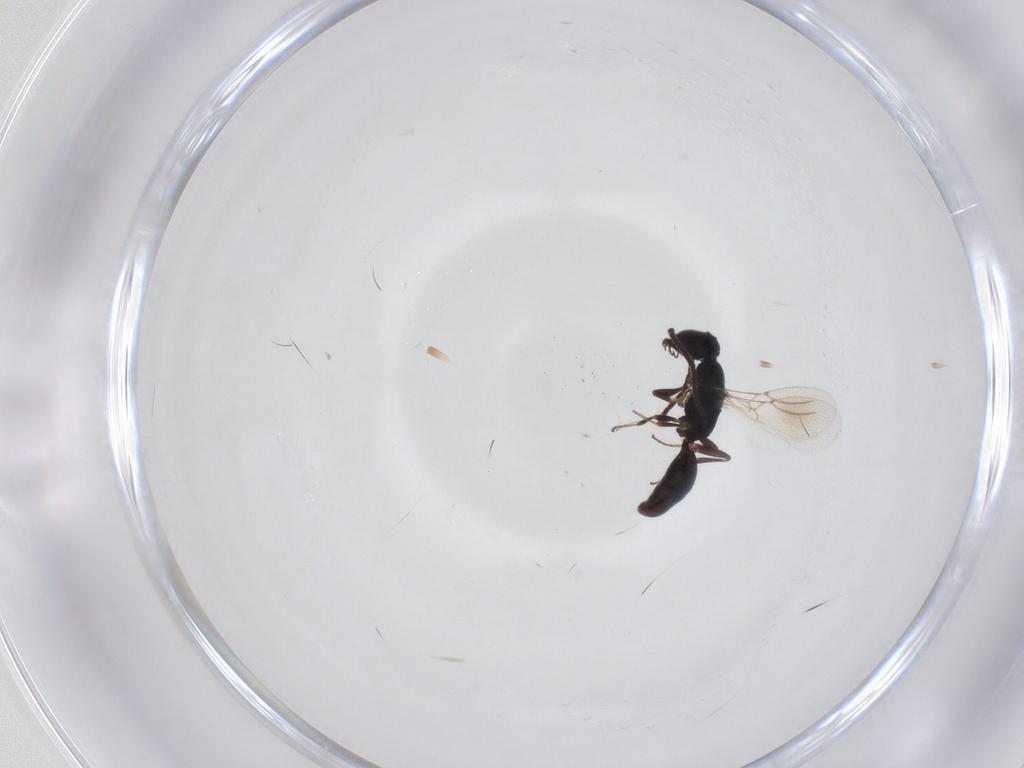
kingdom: Animalia
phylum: Arthropoda
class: Insecta
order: Hymenoptera
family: Bethylidae
